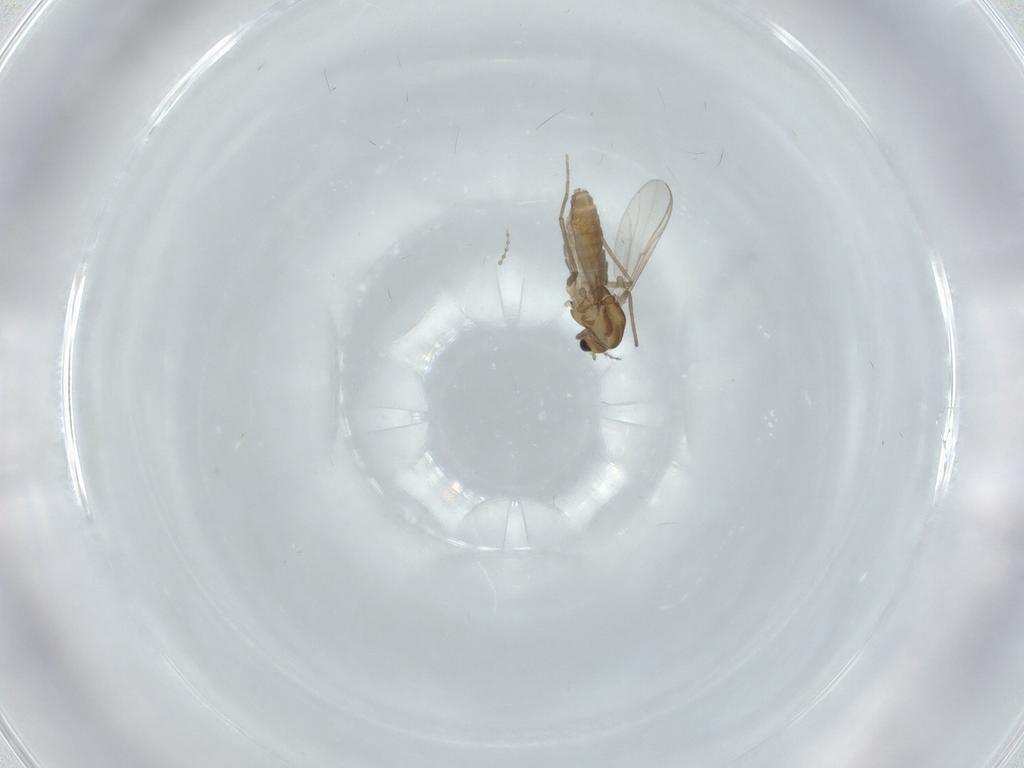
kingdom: Animalia
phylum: Arthropoda
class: Insecta
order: Diptera
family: Chironomidae
